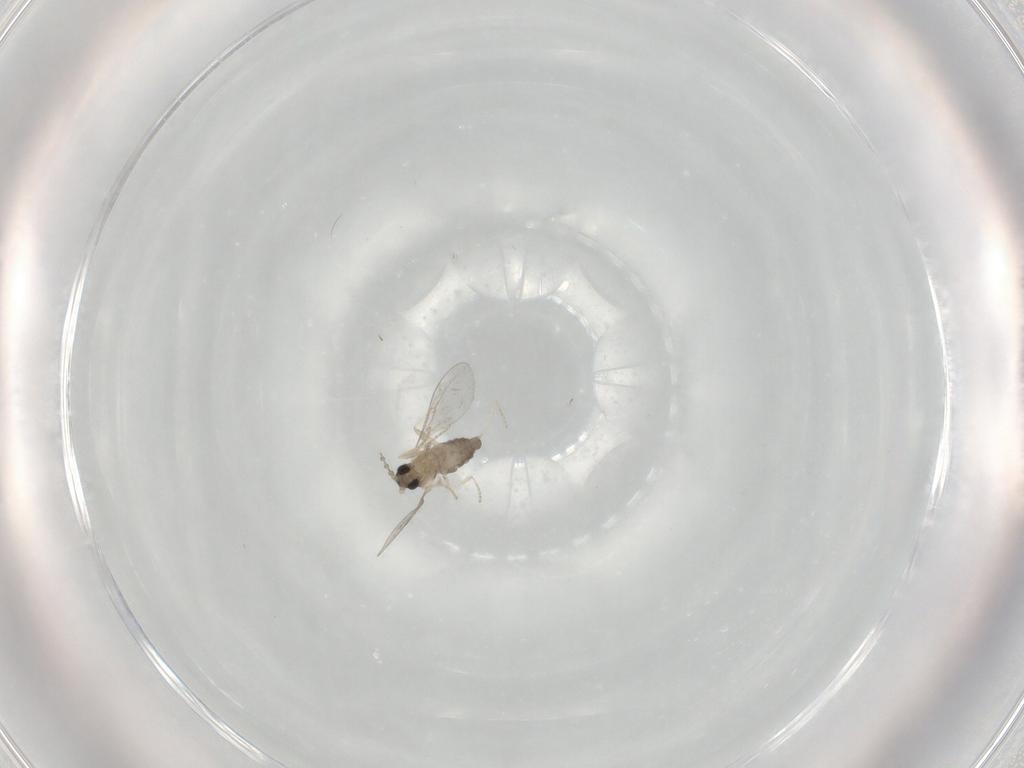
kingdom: Animalia
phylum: Arthropoda
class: Insecta
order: Diptera
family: Cecidomyiidae
